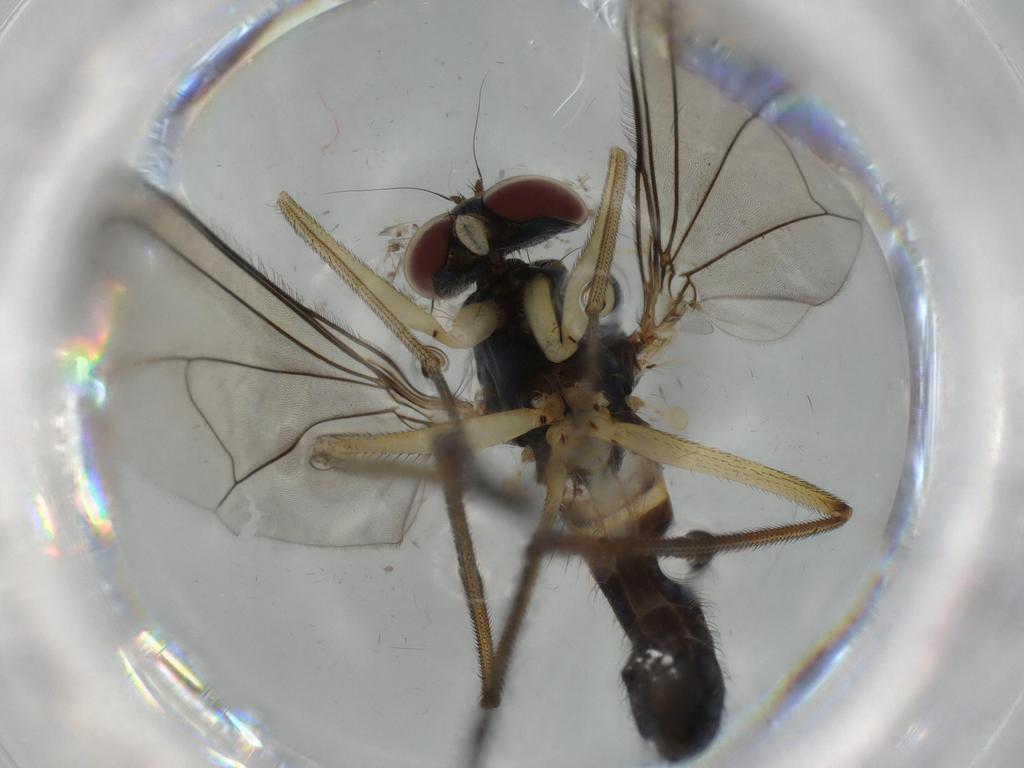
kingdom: Animalia
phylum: Arthropoda
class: Insecta
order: Diptera
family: Dolichopodidae
